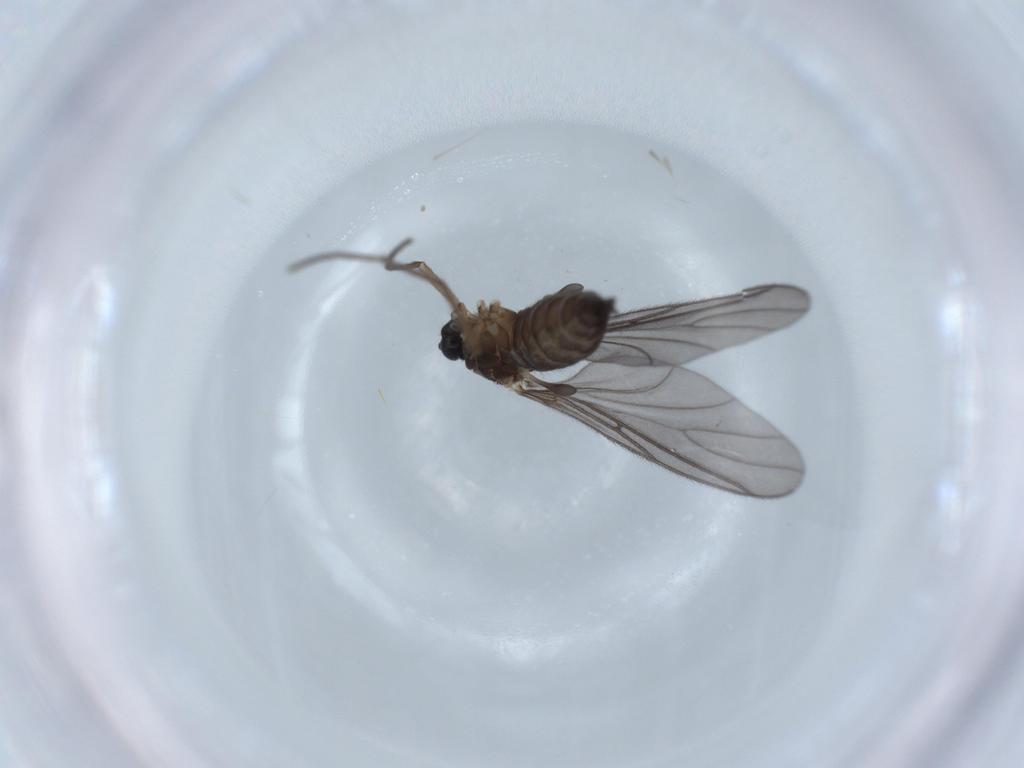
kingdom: Animalia
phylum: Arthropoda
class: Insecta
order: Diptera
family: Sciaridae
